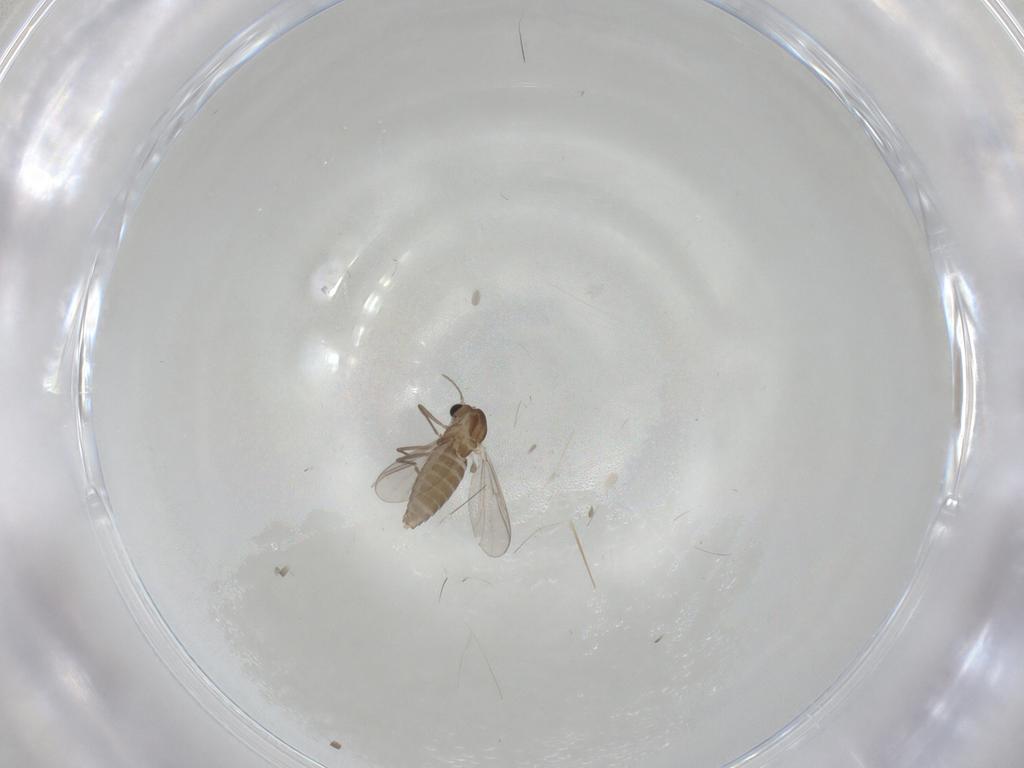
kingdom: Animalia
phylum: Arthropoda
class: Insecta
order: Diptera
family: Chironomidae
